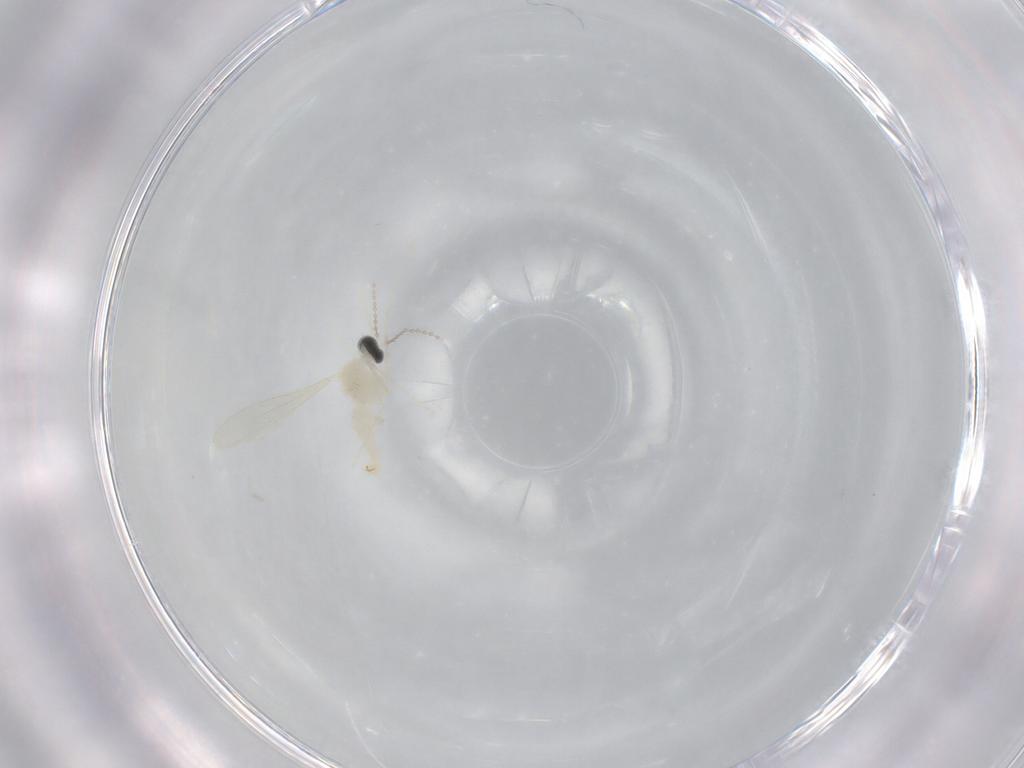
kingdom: Animalia
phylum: Arthropoda
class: Insecta
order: Diptera
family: Cecidomyiidae
